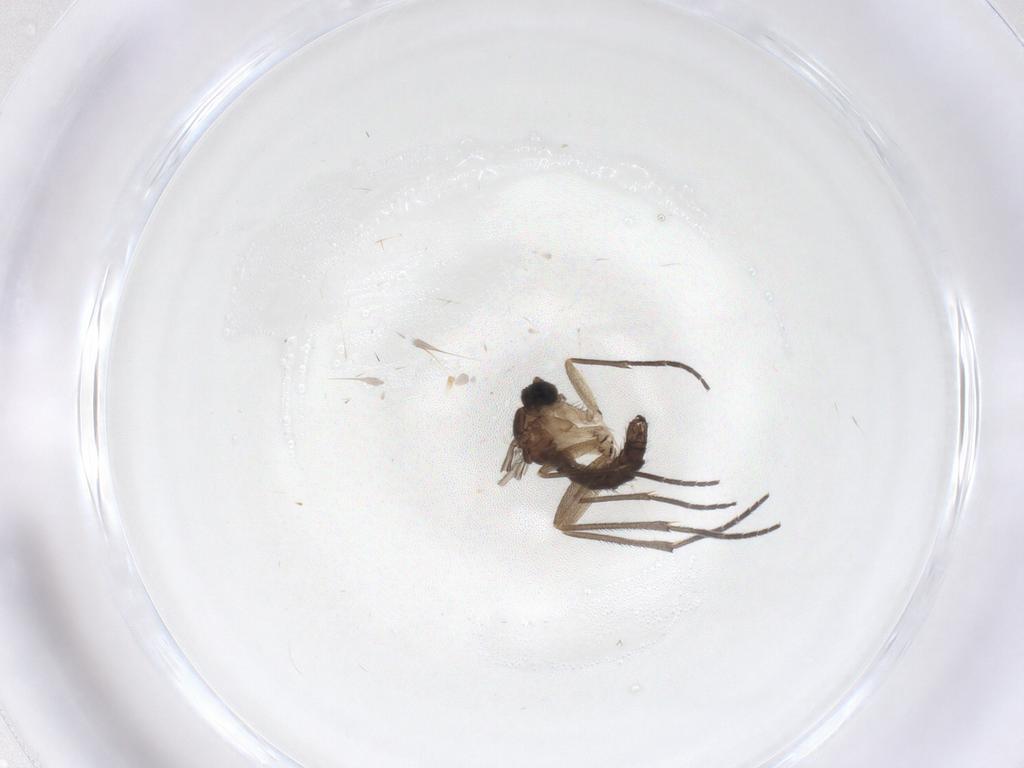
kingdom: Animalia
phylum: Arthropoda
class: Insecta
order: Diptera
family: Sciaridae
